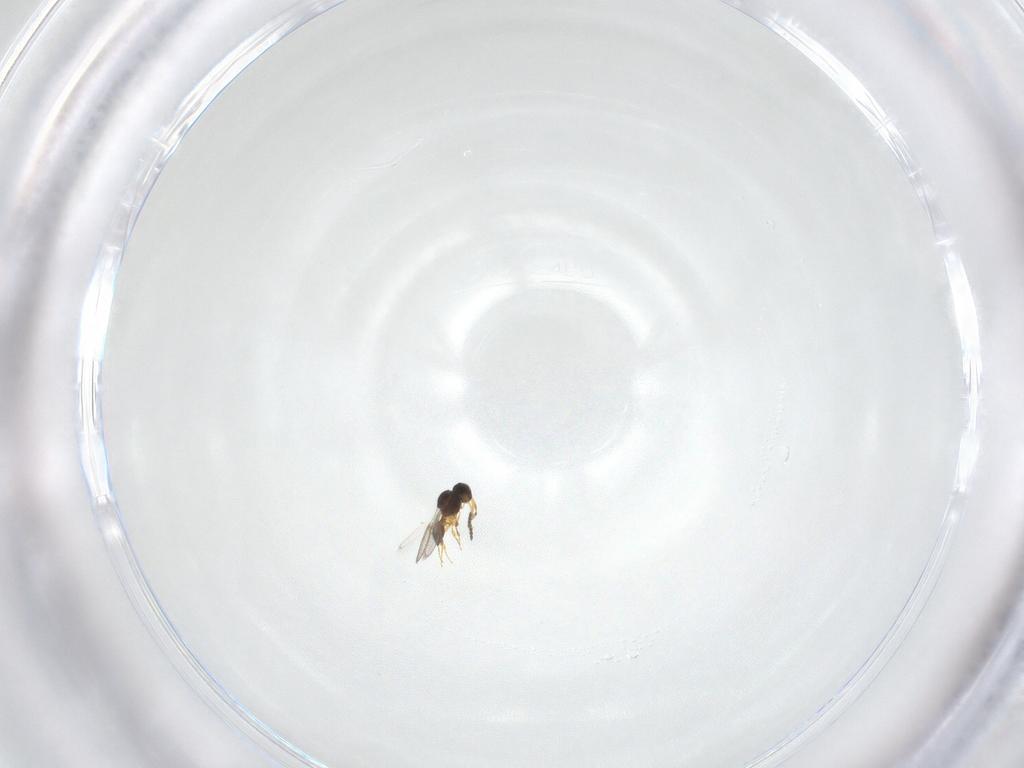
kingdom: Animalia
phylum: Arthropoda
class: Insecta
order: Hymenoptera
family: Platygastridae
